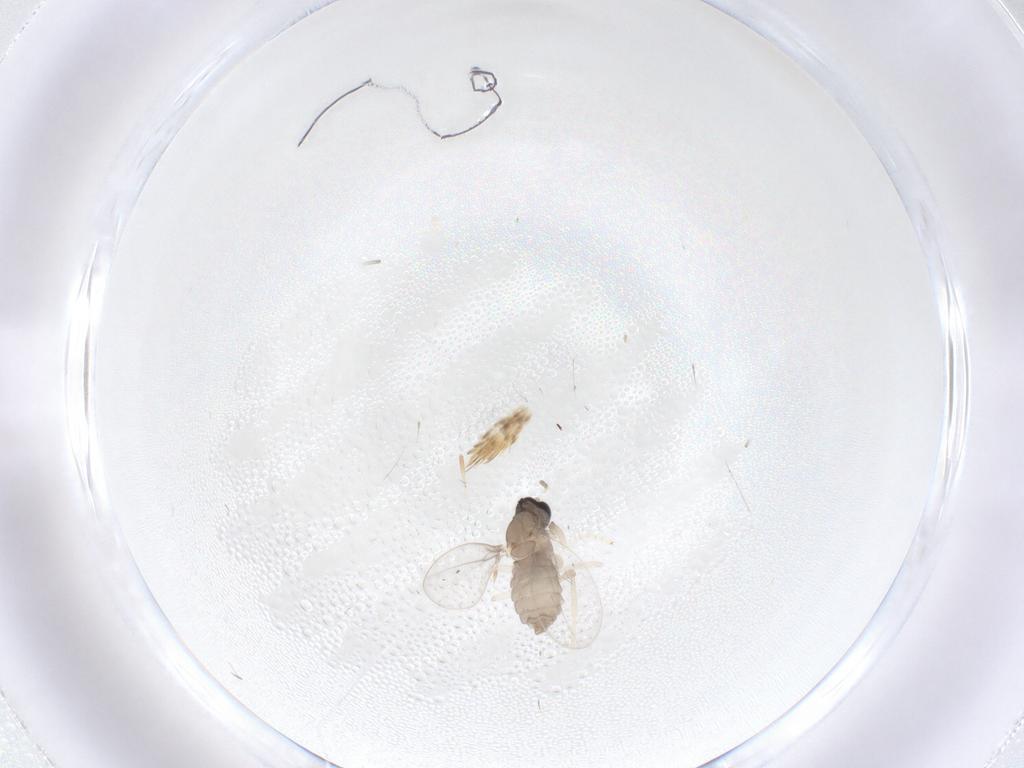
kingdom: Animalia
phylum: Arthropoda
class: Insecta
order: Diptera
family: Cecidomyiidae
